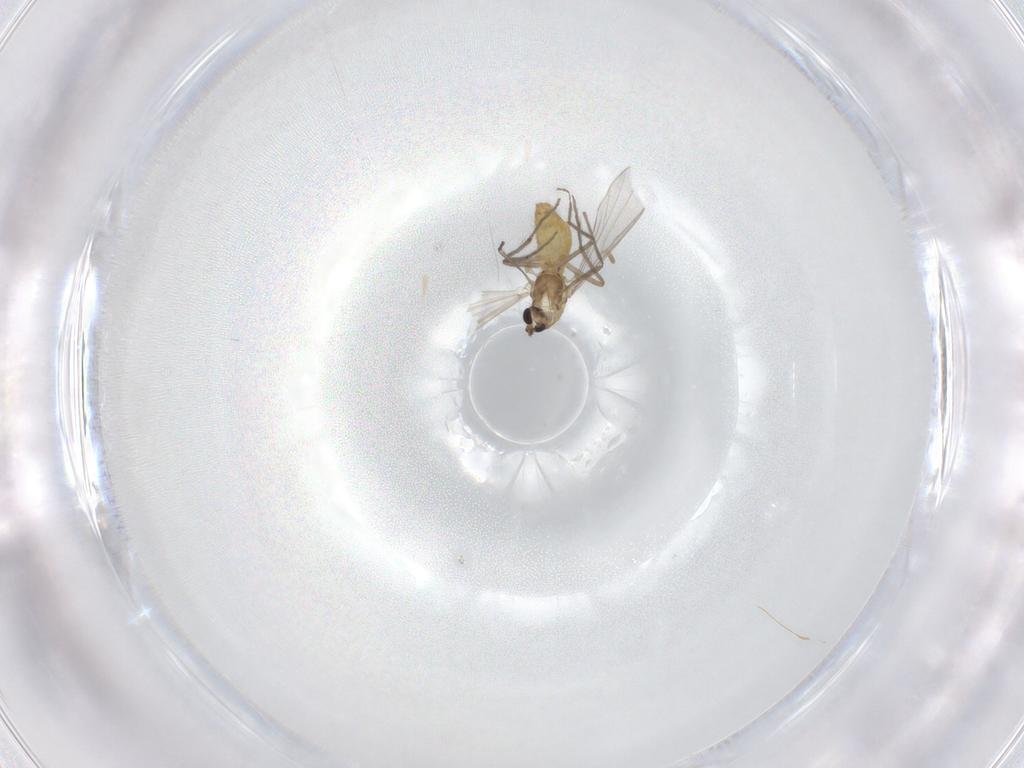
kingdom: Animalia
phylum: Arthropoda
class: Insecta
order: Diptera
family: Chironomidae
